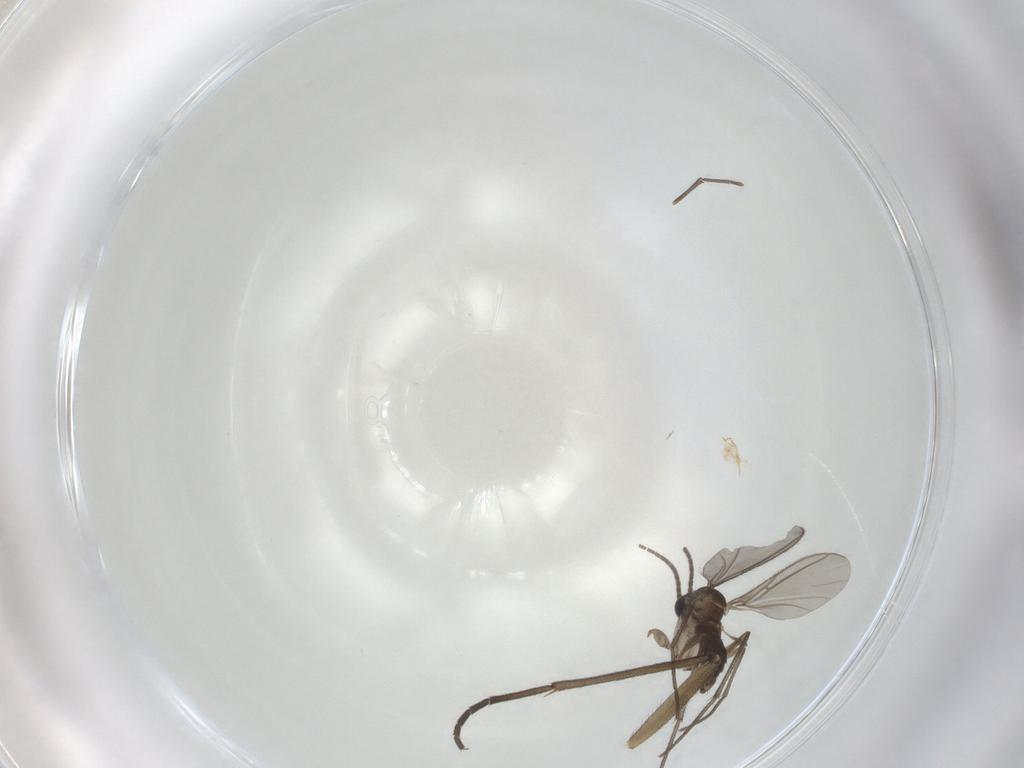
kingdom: Animalia
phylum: Arthropoda
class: Insecta
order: Diptera
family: Sciaridae
